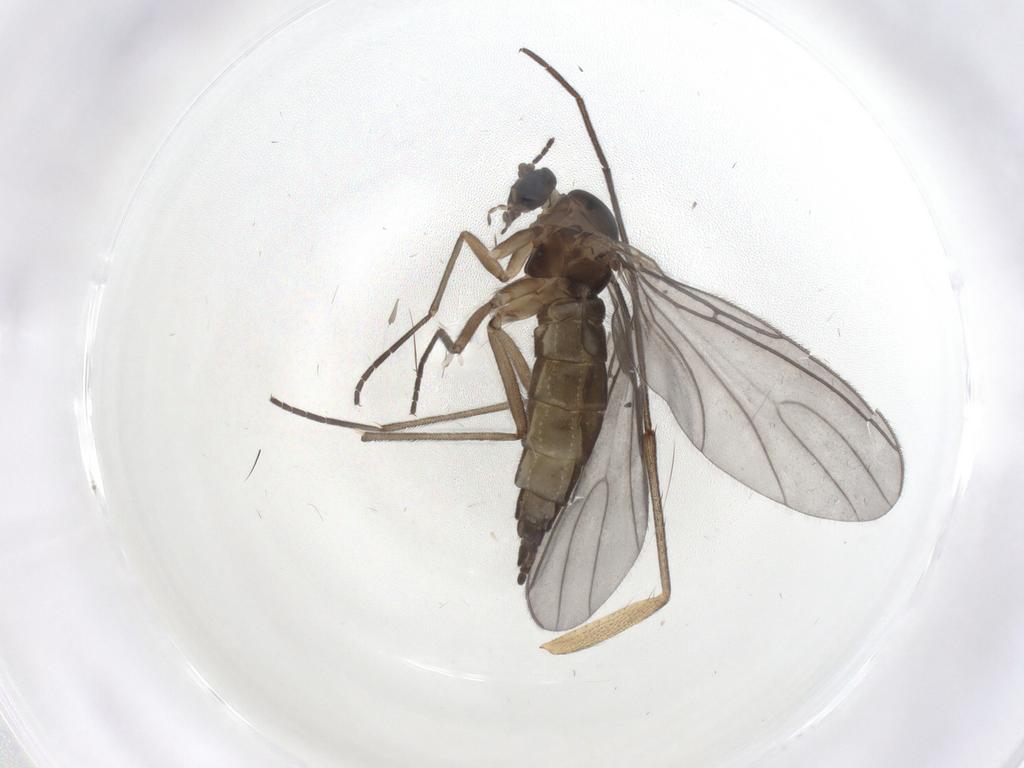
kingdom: Animalia
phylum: Arthropoda
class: Insecta
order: Diptera
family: Mycetophilidae
